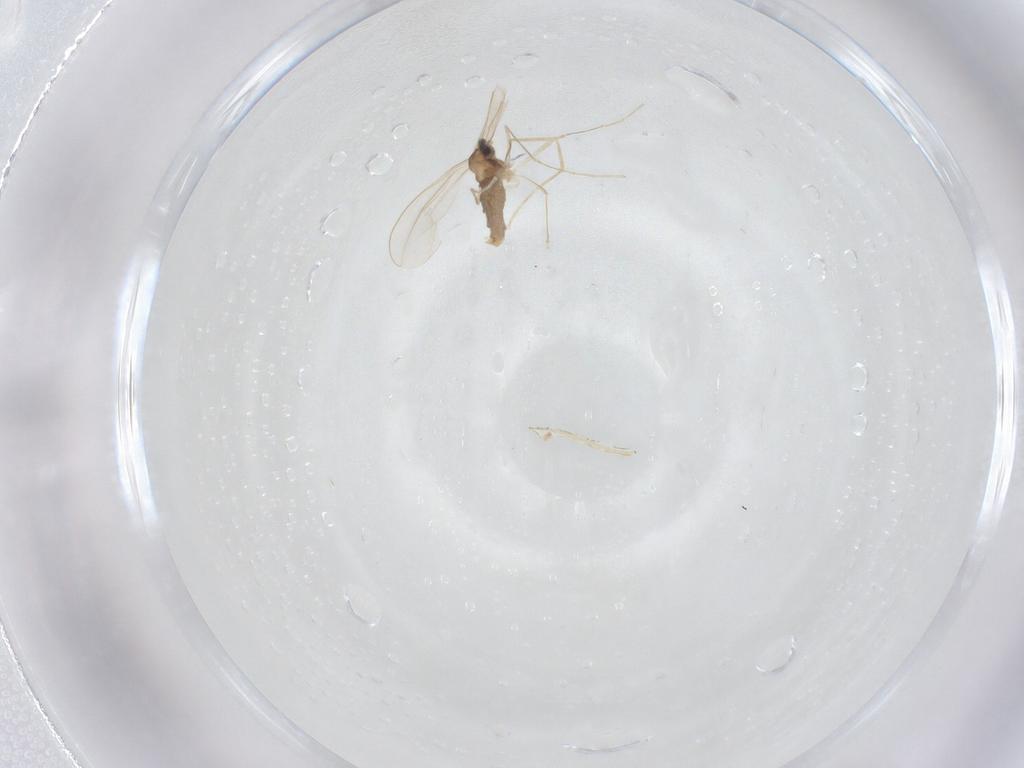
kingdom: Animalia
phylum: Arthropoda
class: Insecta
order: Diptera
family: Cecidomyiidae
